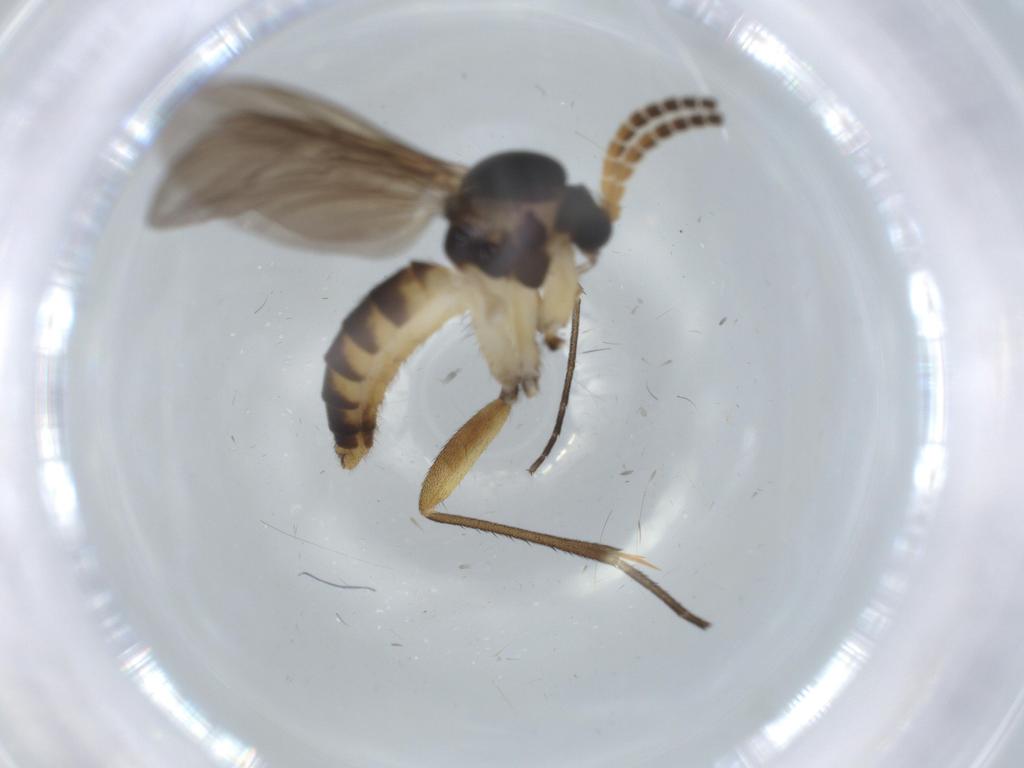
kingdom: Animalia
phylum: Arthropoda
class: Insecta
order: Diptera
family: Ceratopogonidae
